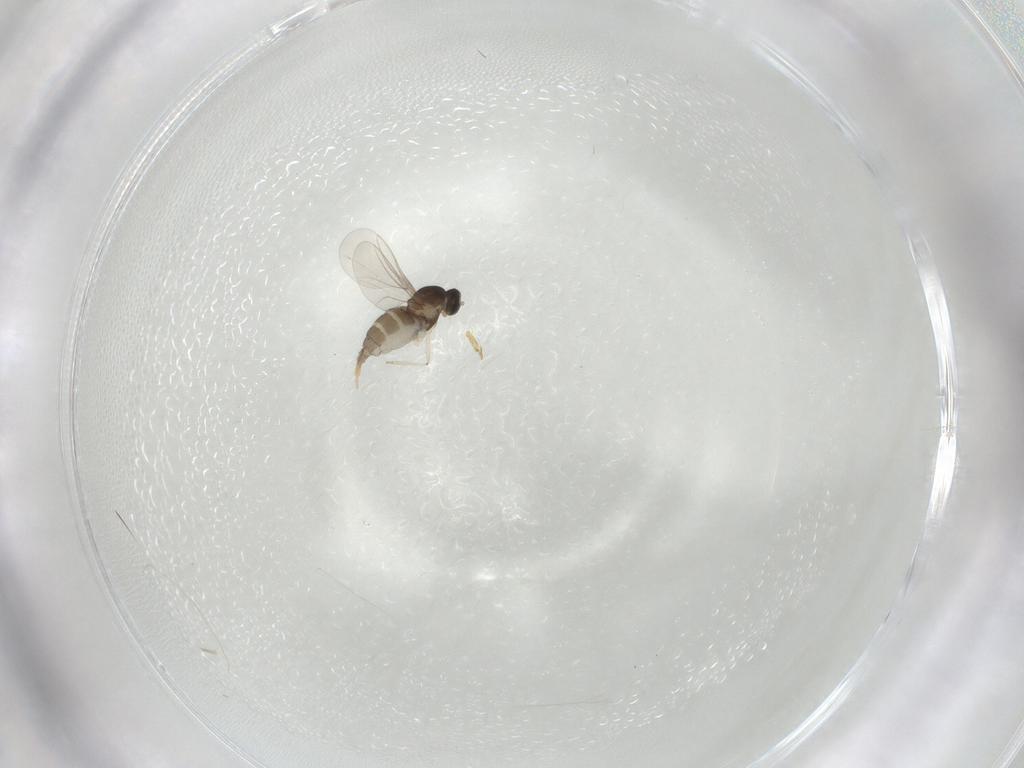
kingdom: Animalia
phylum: Arthropoda
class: Insecta
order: Diptera
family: Cecidomyiidae
